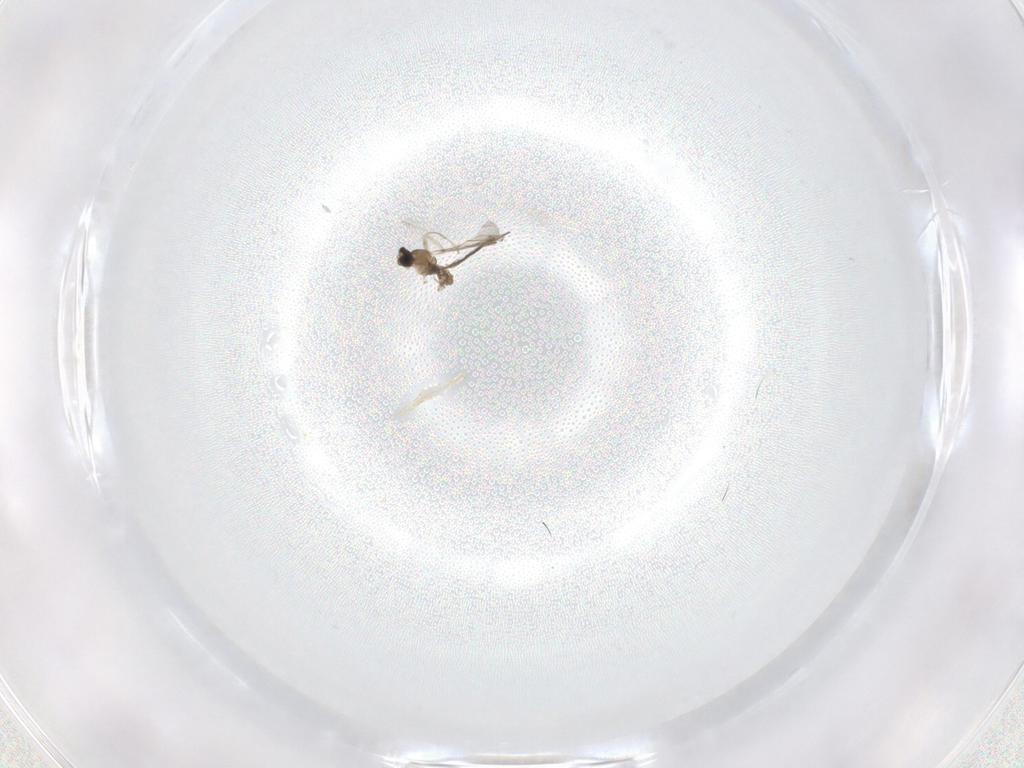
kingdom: Animalia
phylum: Arthropoda
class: Insecta
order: Diptera
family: Cecidomyiidae
